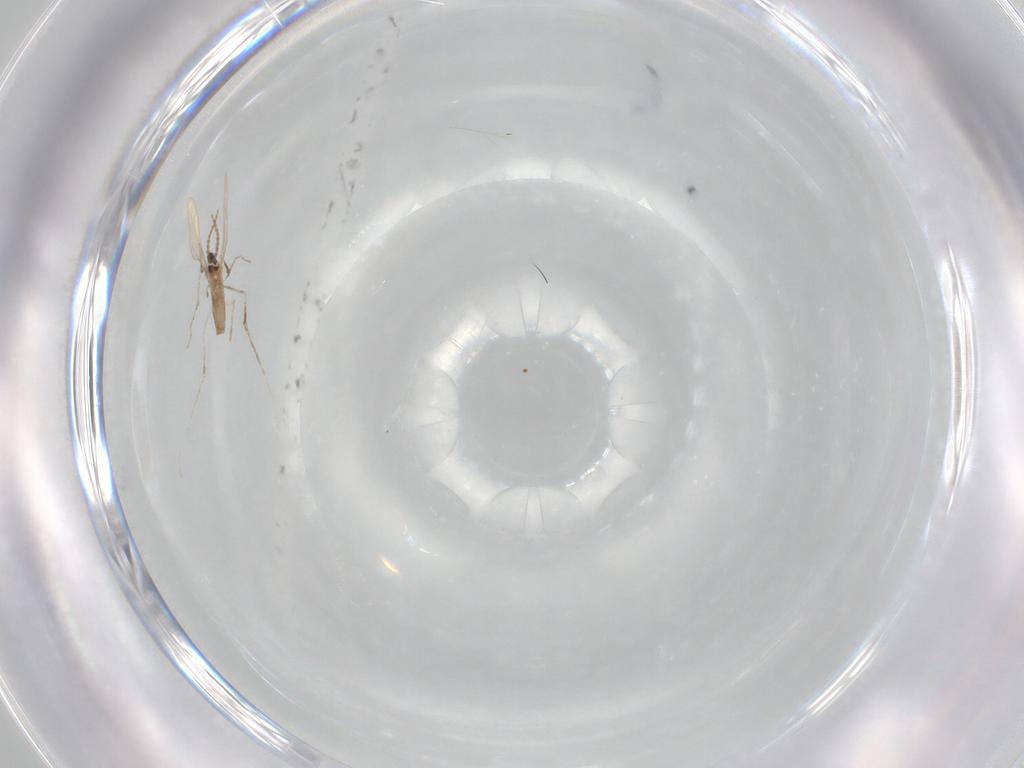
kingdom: Animalia
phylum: Arthropoda
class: Insecta
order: Diptera
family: Cecidomyiidae
